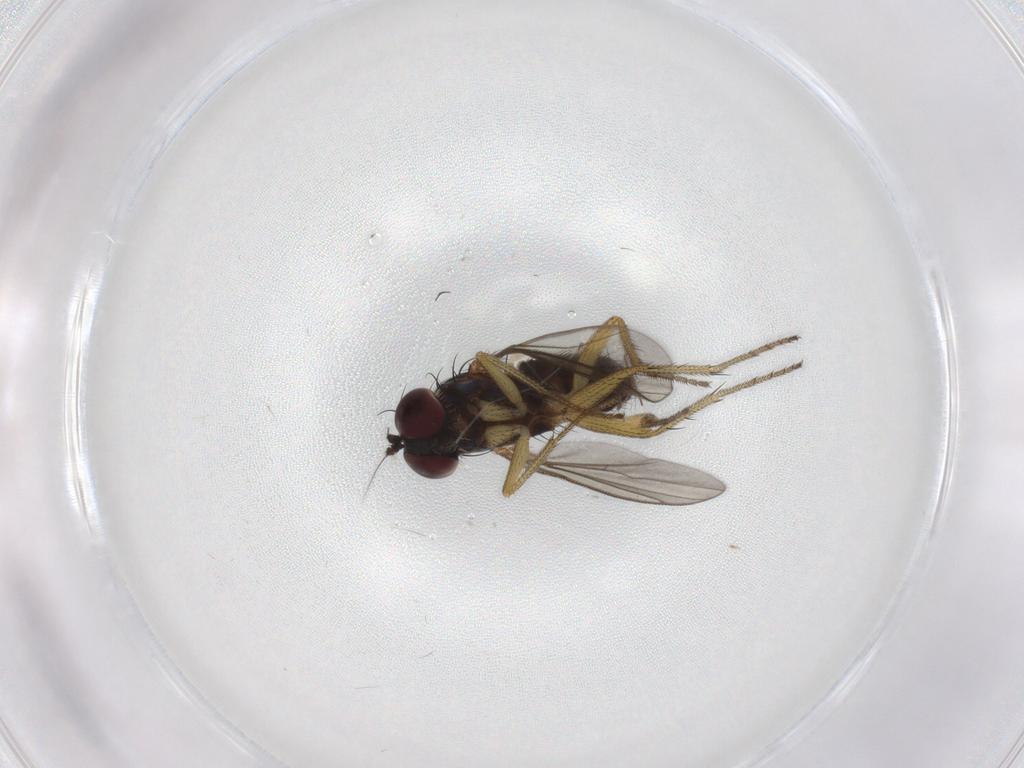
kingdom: Animalia
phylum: Arthropoda
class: Insecta
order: Diptera
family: Dolichopodidae
